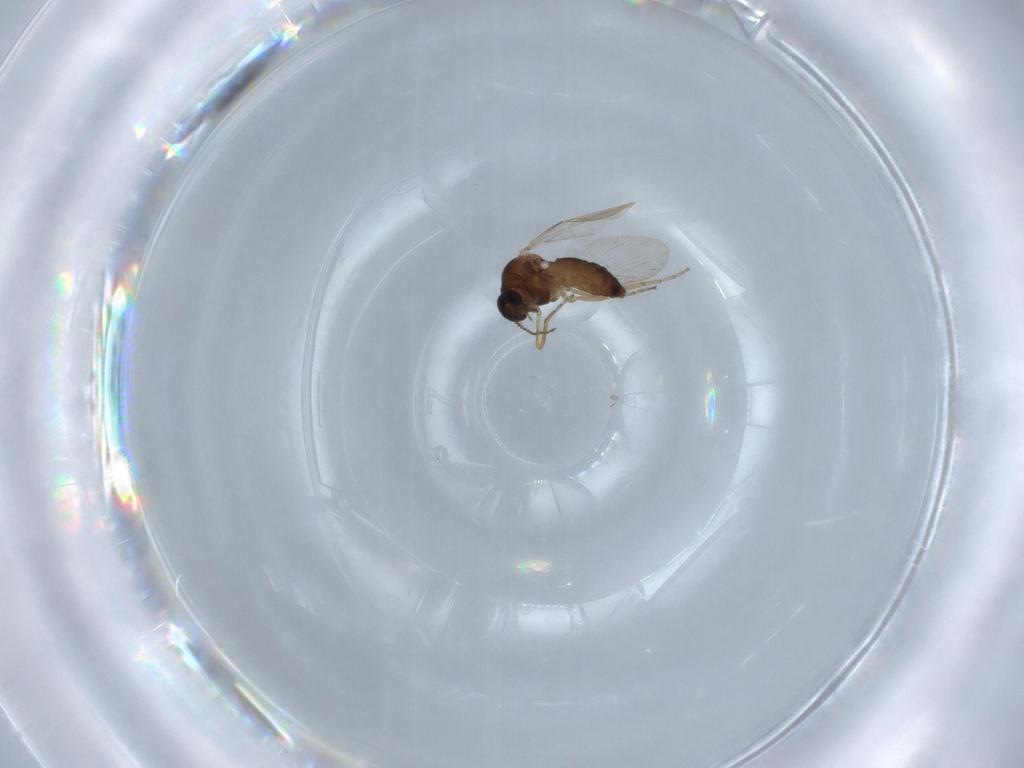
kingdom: Animalia
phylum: Arthropoda
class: Insecta
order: Diptera
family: Ceratopogonidae
